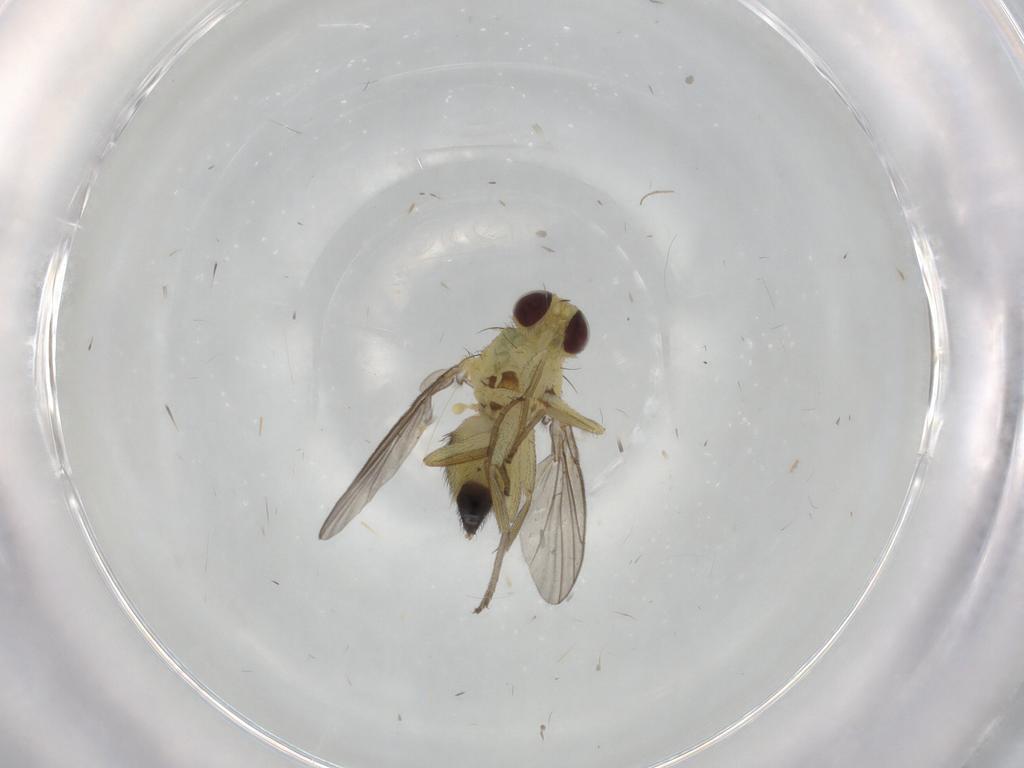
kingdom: Animalia
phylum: Arthropoda
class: Insecta
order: Diptera
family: Agromyzidae
